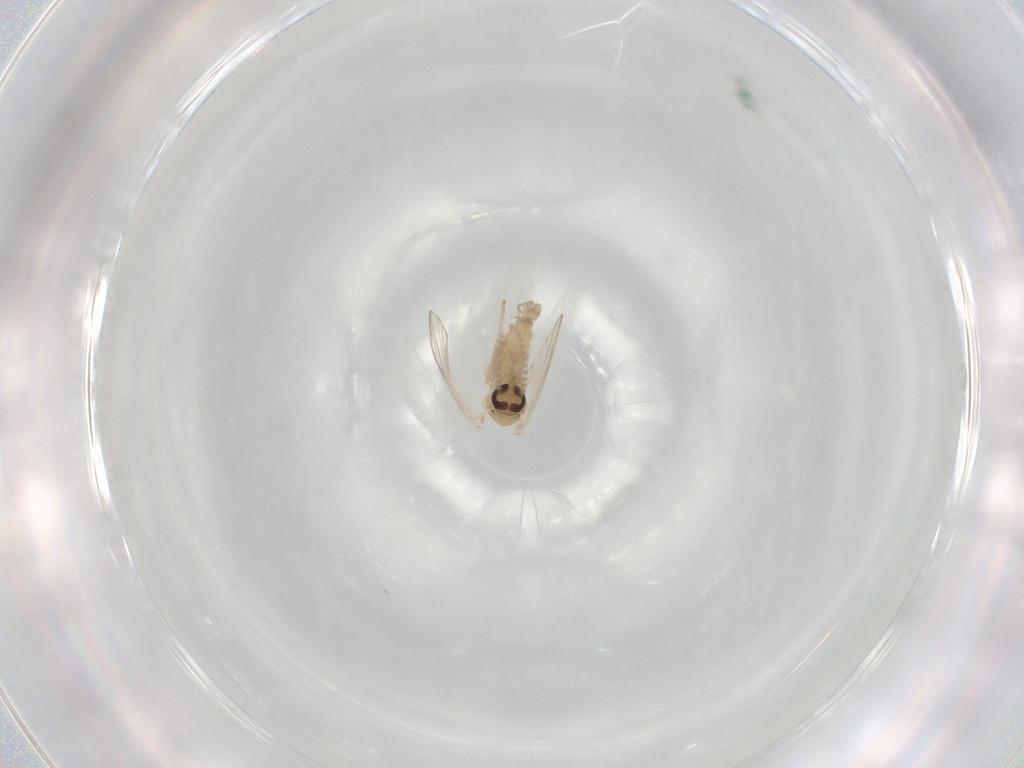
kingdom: Animalia
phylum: Arthropoda
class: Insecta
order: Diptera
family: Psychodidae
